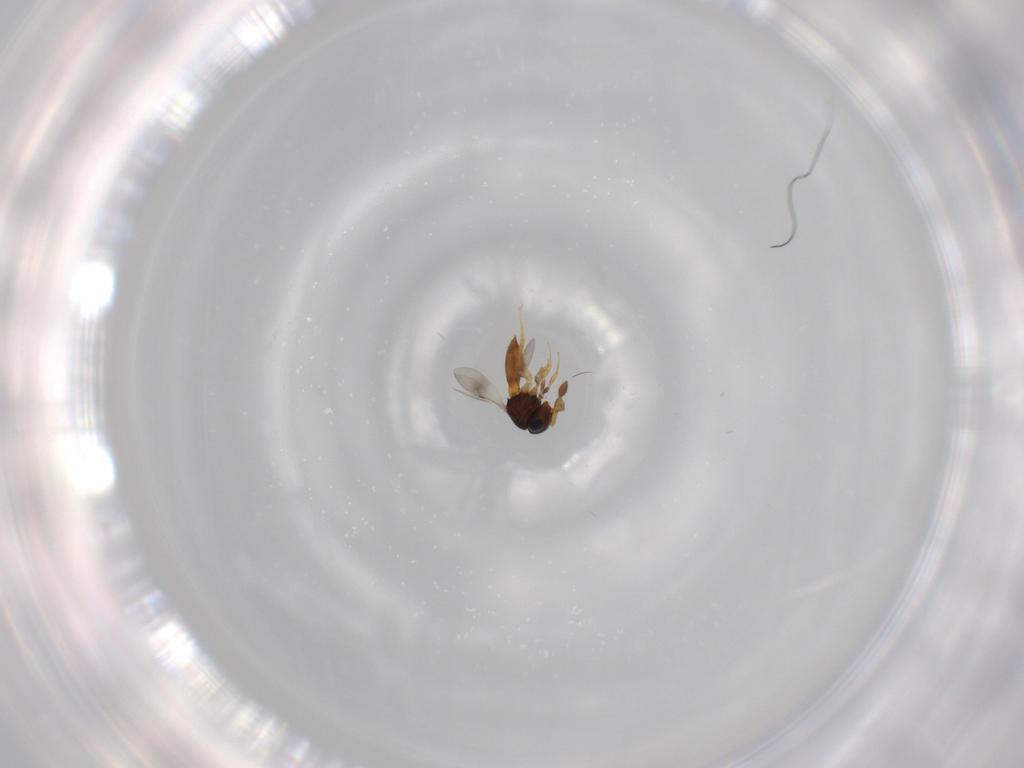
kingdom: Animalia
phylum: Arthropoda
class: Insecta
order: Hymenoptera
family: Scelionidae
